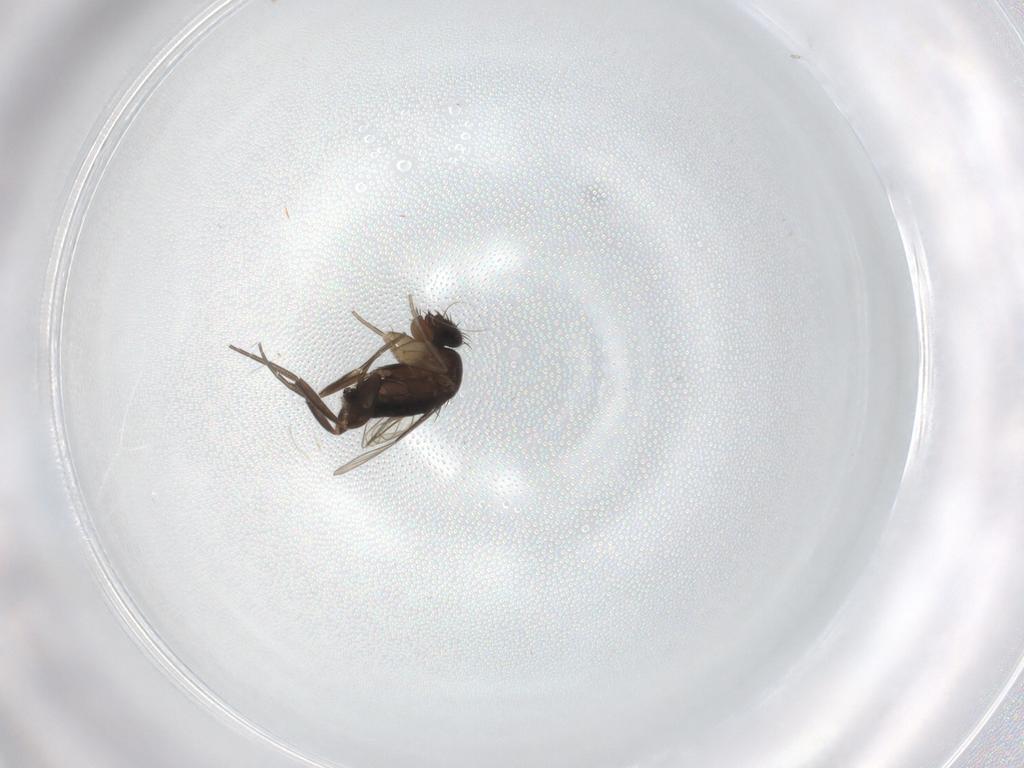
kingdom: Animalia
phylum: Arthropoda
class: Insecta
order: Diptera
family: Phoridae
